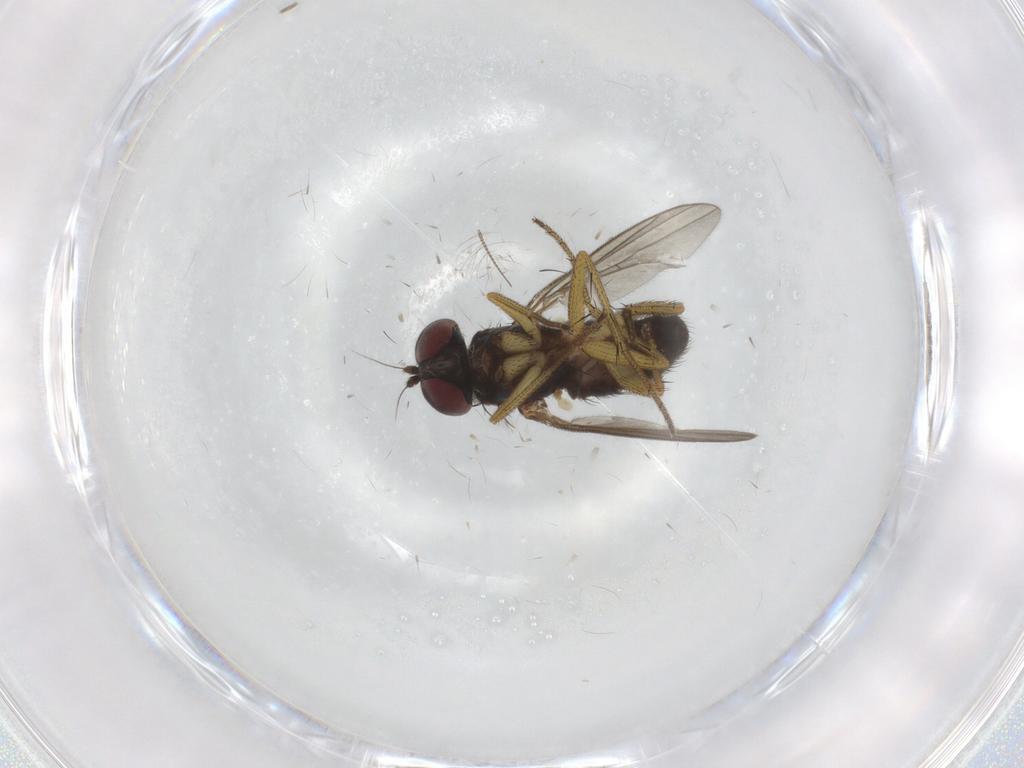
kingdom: Animalia
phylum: Arthropoda
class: Insecta
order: Diptera
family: Dolichopodidae
